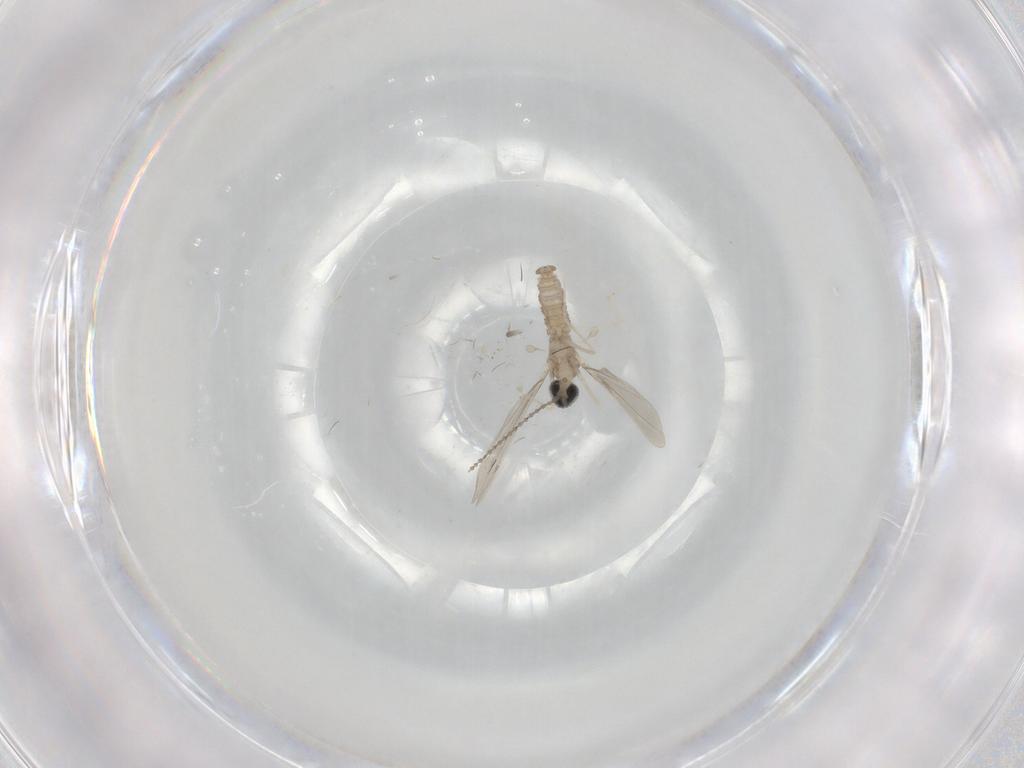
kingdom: Animalia
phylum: Arthropoda
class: Insecta
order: Diptera
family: Cecidomyiidae
